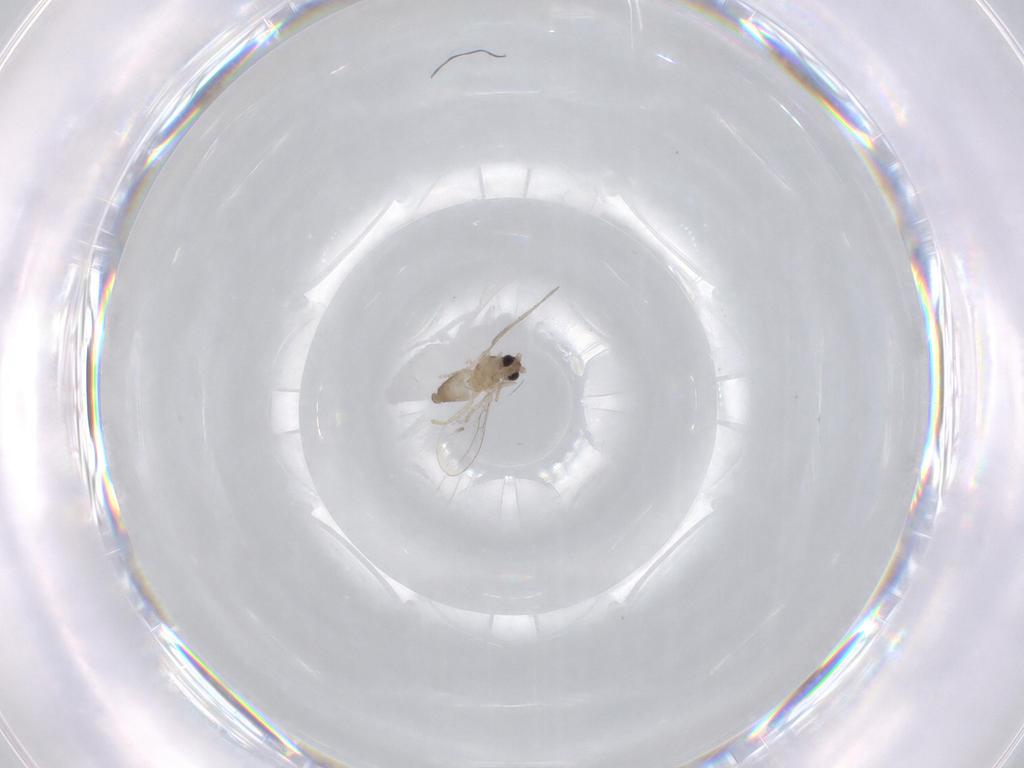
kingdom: Animalia
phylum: Arthropoda
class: Insecta
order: Diptera
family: Cecidomyiidae
